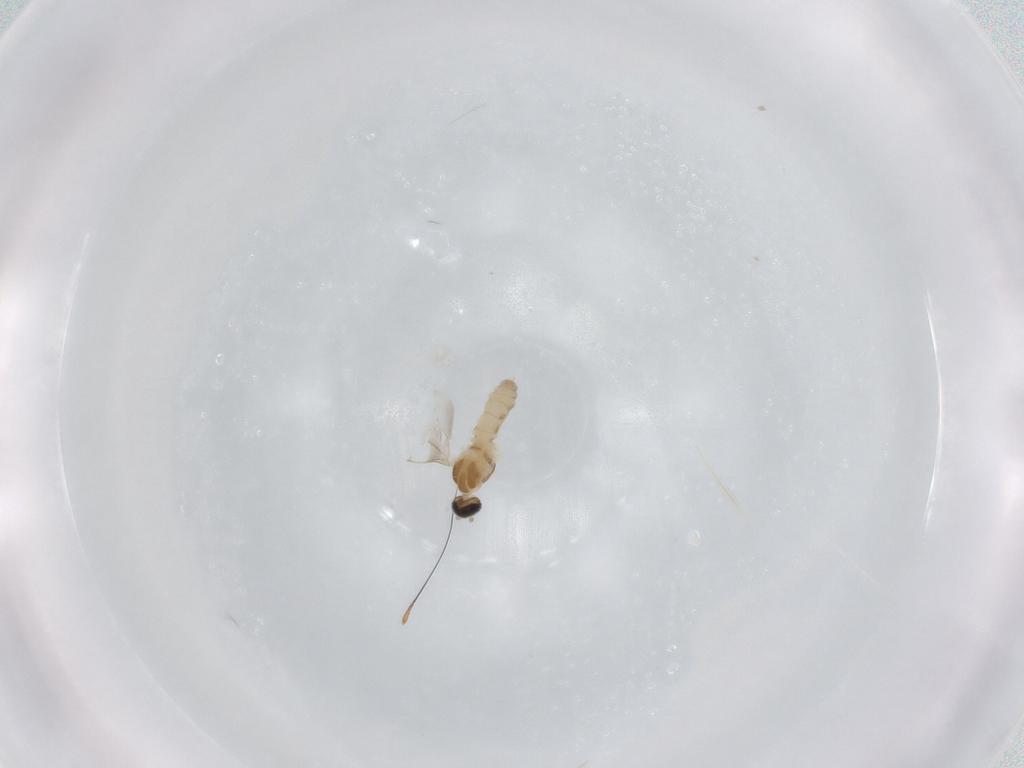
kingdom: Animalia
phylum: Arthropoda
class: Insecta
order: Diptera
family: Cecidomyiidae
